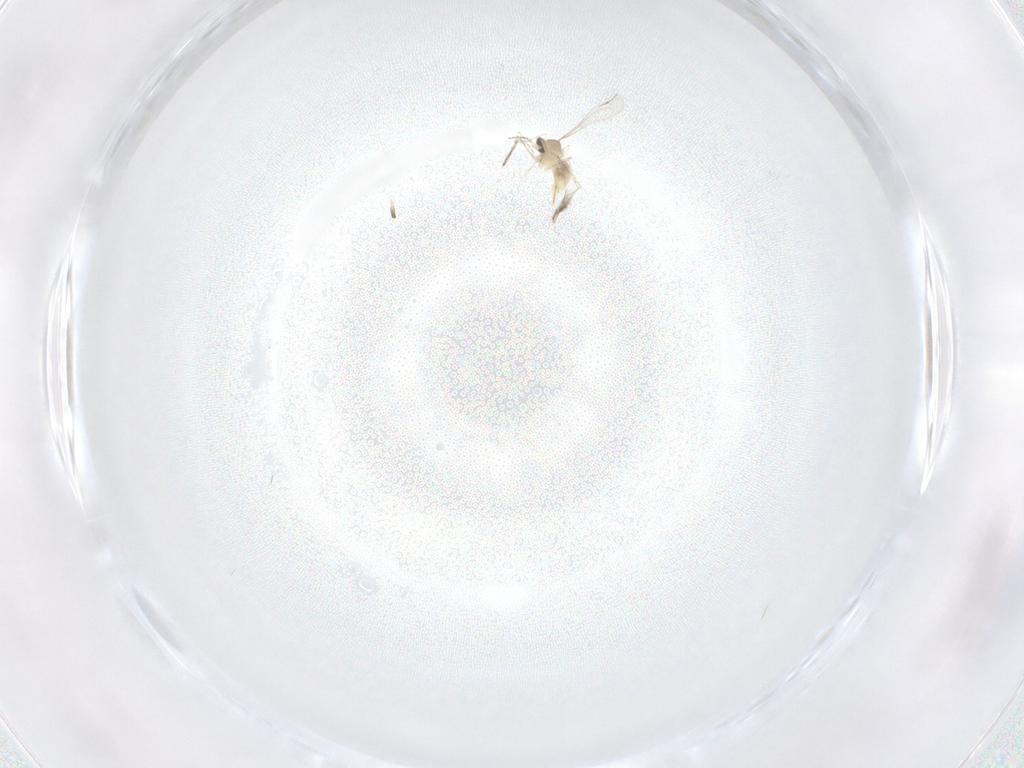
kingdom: Animalia
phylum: Arthropoda
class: Insecta
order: Diptera
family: Cecidomyiidae
